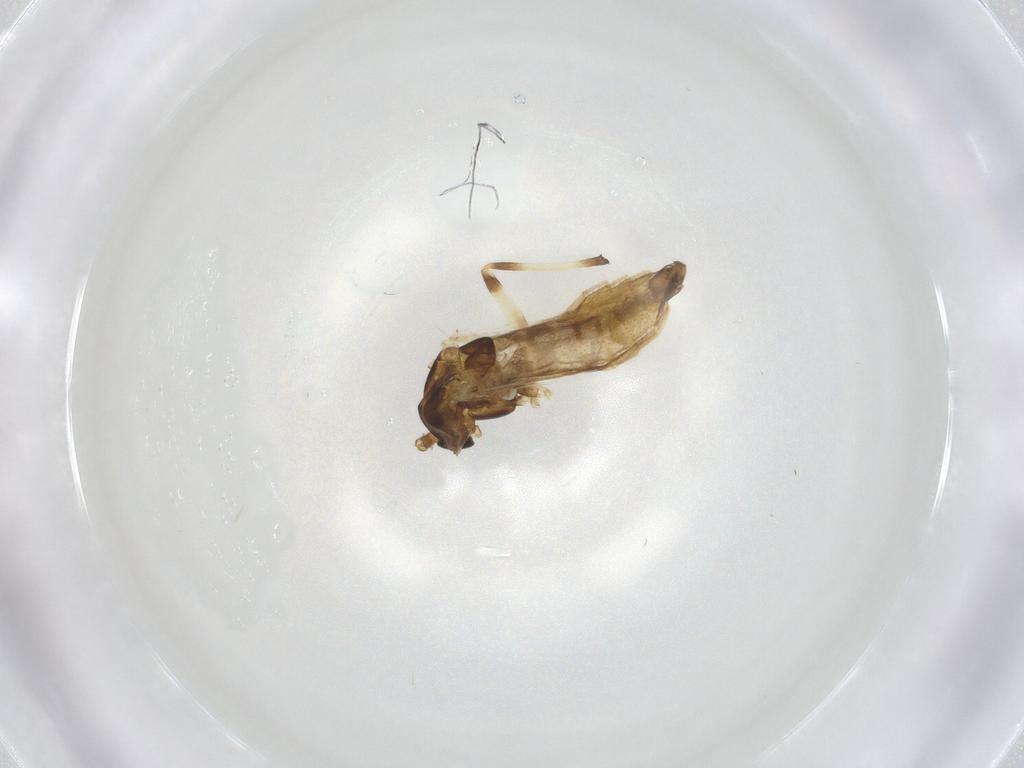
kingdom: Animalia
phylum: Arthropoda
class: Insecta
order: Diptera
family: Chironomidae
